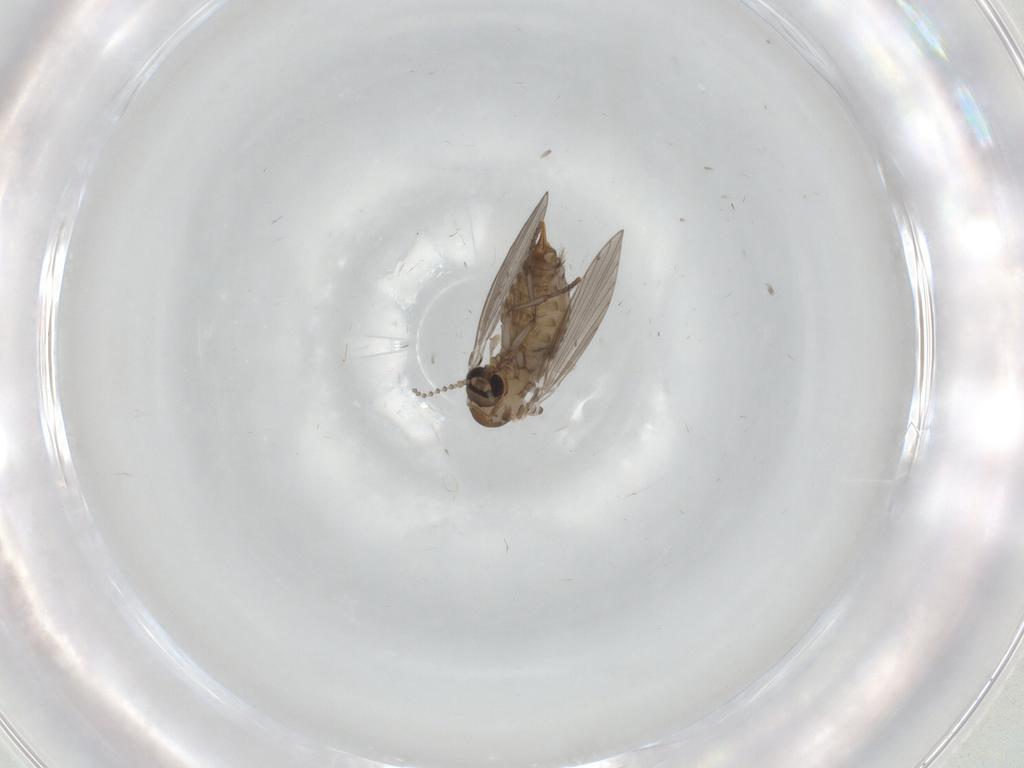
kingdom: Animalia
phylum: Arthropoda
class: Insecta
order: Diptera
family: Psychodidae
